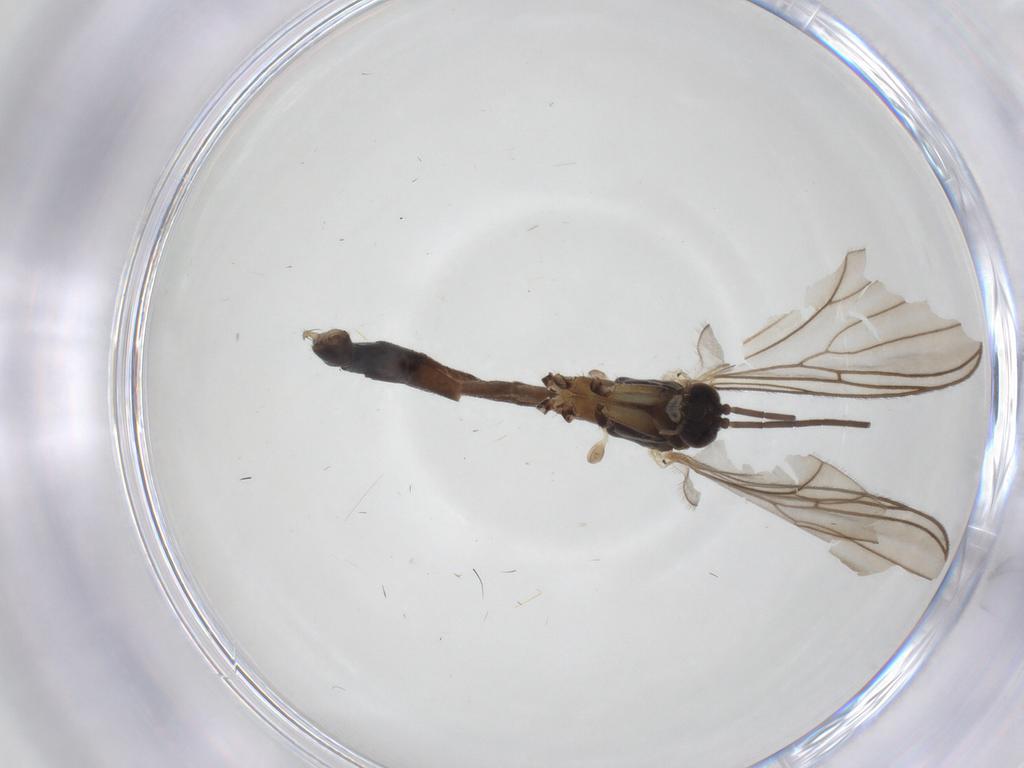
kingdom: Animalia
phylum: Arthropoda
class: Insecta
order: Diptera
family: Mycetophilidae
